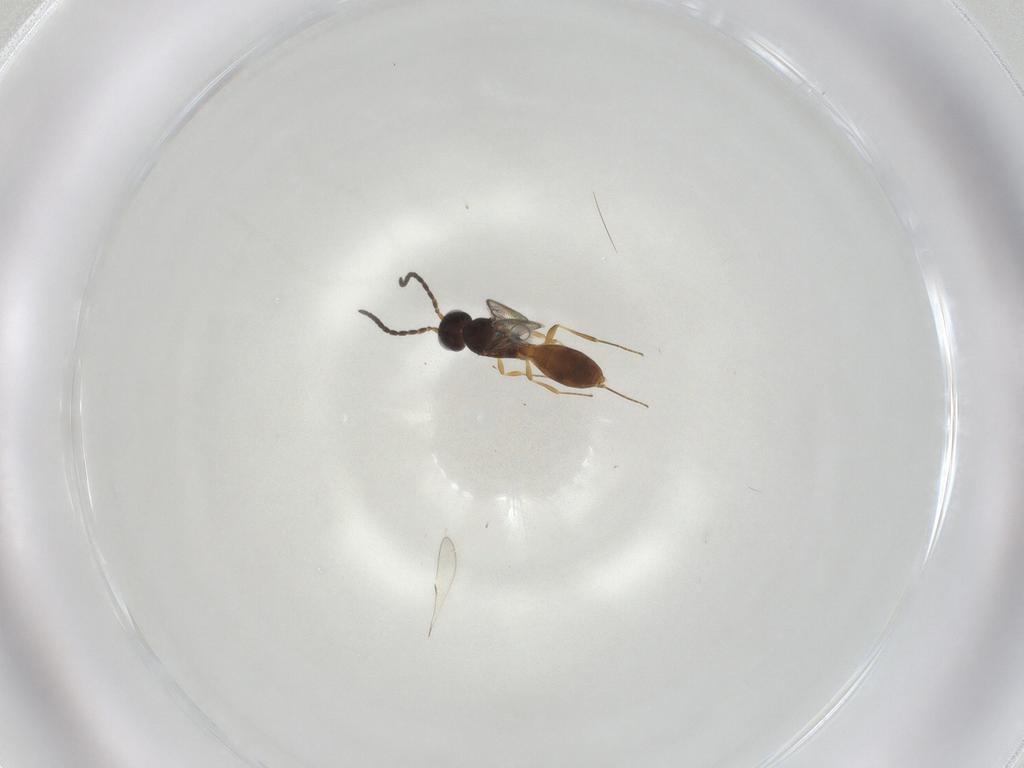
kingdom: Animalia
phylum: Arthropoda
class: Insecta
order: Hymenoptera
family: Scelionidae
